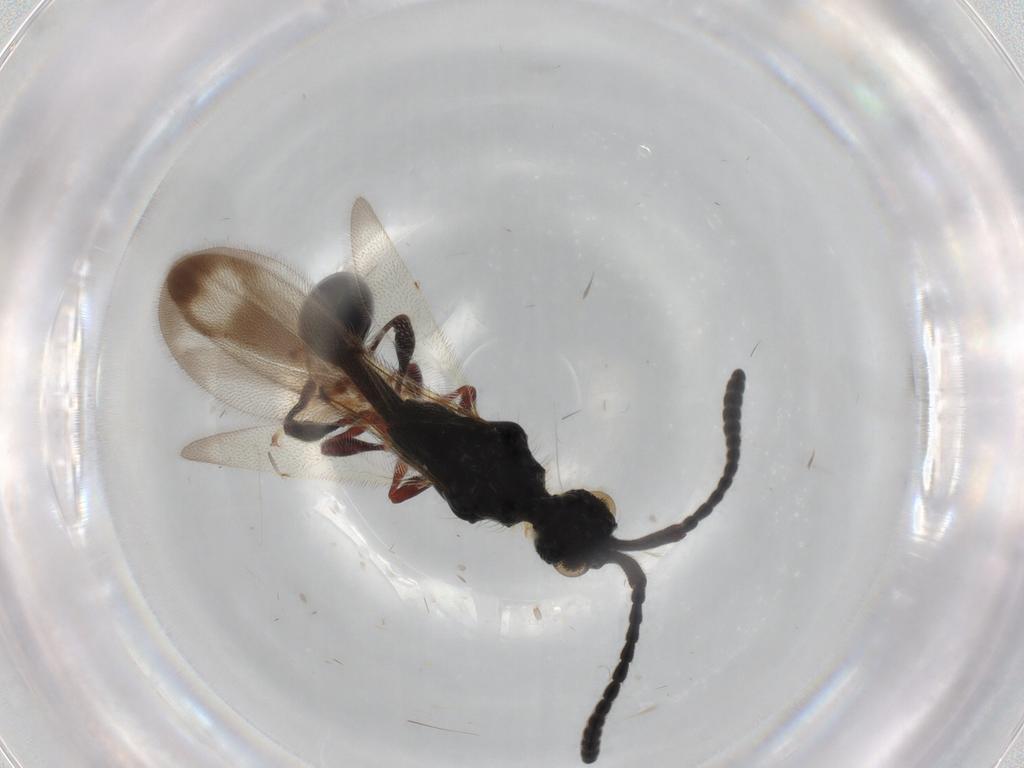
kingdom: Animalia
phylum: Arthropoda
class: Insecta
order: Hymenoptera
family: Diapriidae
